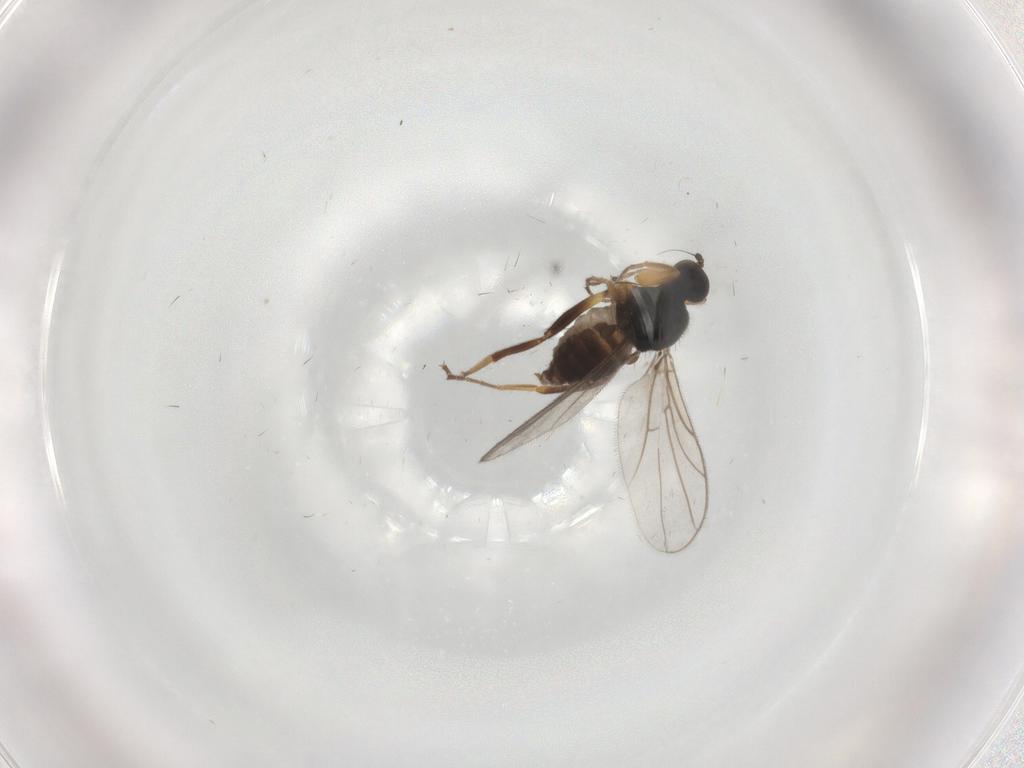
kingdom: Animalia
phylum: Arthropoda
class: Insecta
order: Diptera
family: Hybotidae
